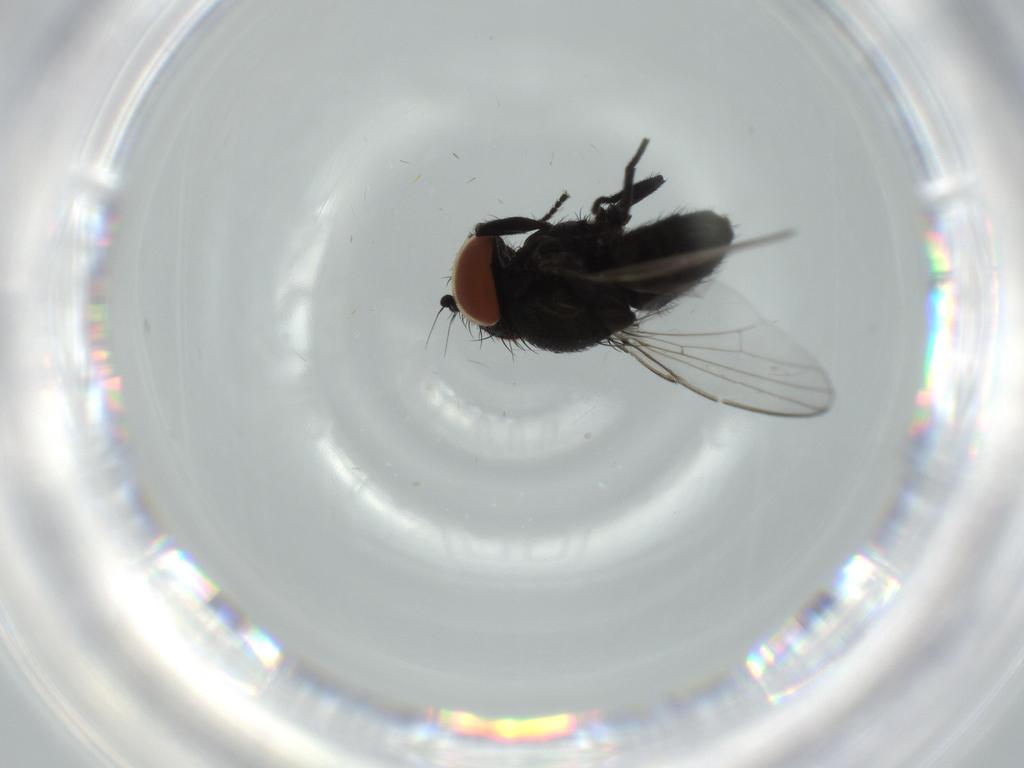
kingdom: Animalia
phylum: Arthropoda
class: Insecta
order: Diptera
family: Milichiidae
